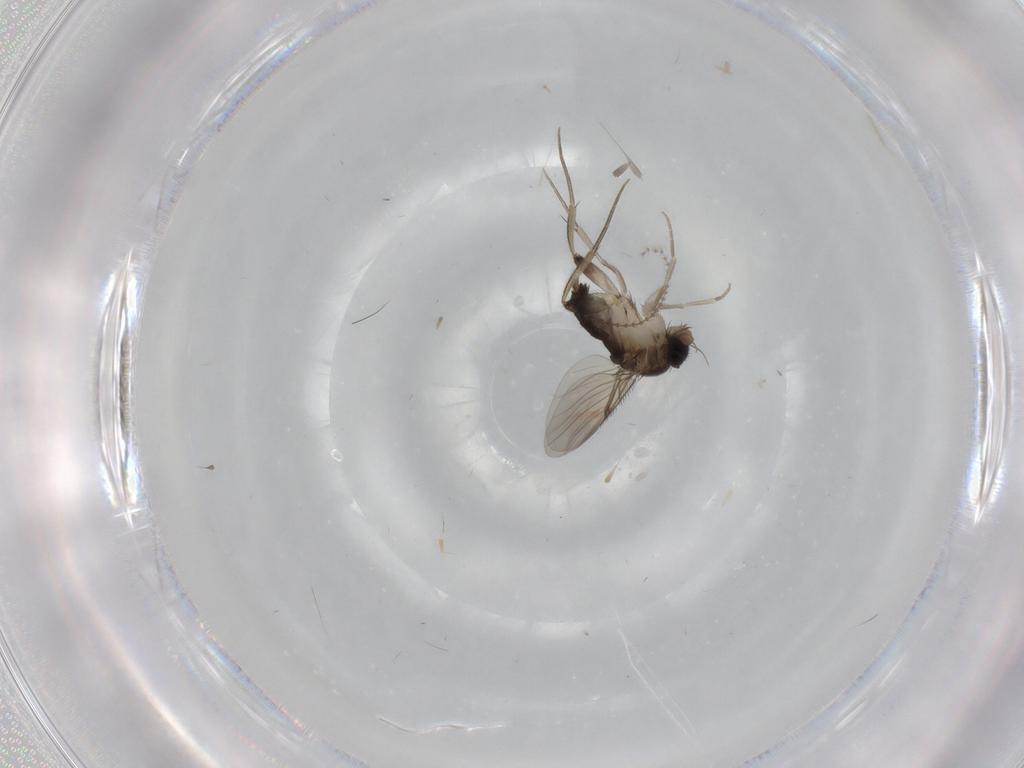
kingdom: Animalia
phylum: Arthropoda
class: Insecta
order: Diptera
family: Phoridae
